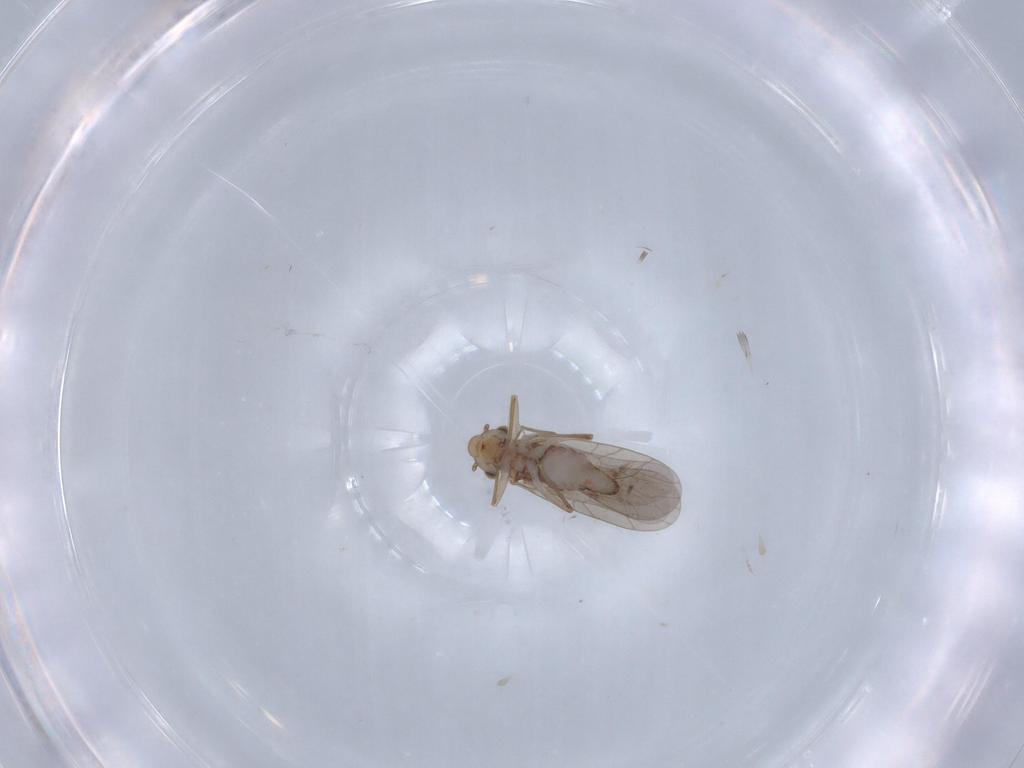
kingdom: Animalia
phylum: Arthropoda
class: Insecta
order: Psocodea
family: Lepidopsocidae
